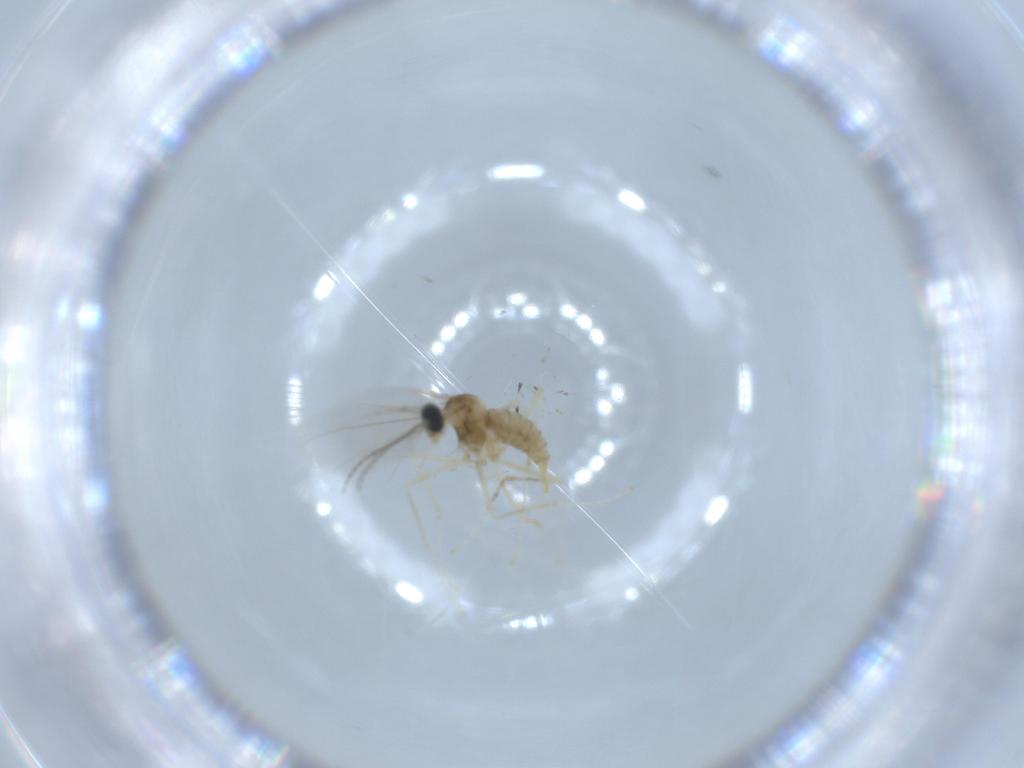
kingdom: Animalia
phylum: Arthropoda
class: Insecta
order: Diptera
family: Cecidomyiidae
